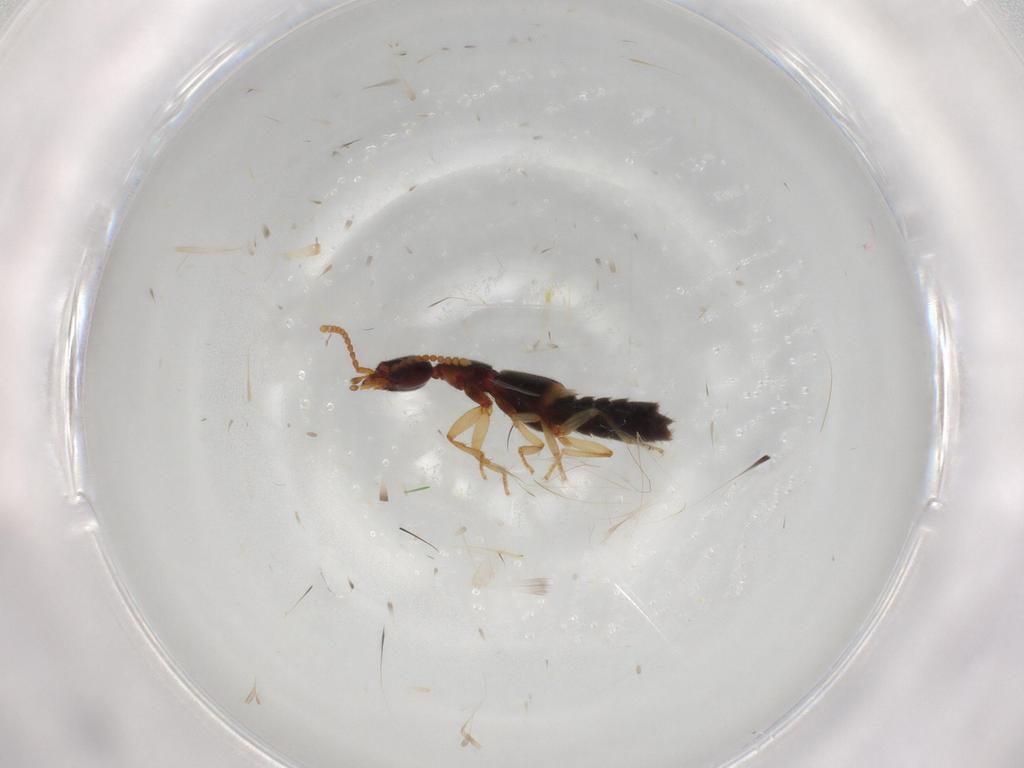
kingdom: Animalia
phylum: Arthropoda
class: Insecta
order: Coleoptera
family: Staphylinidae
